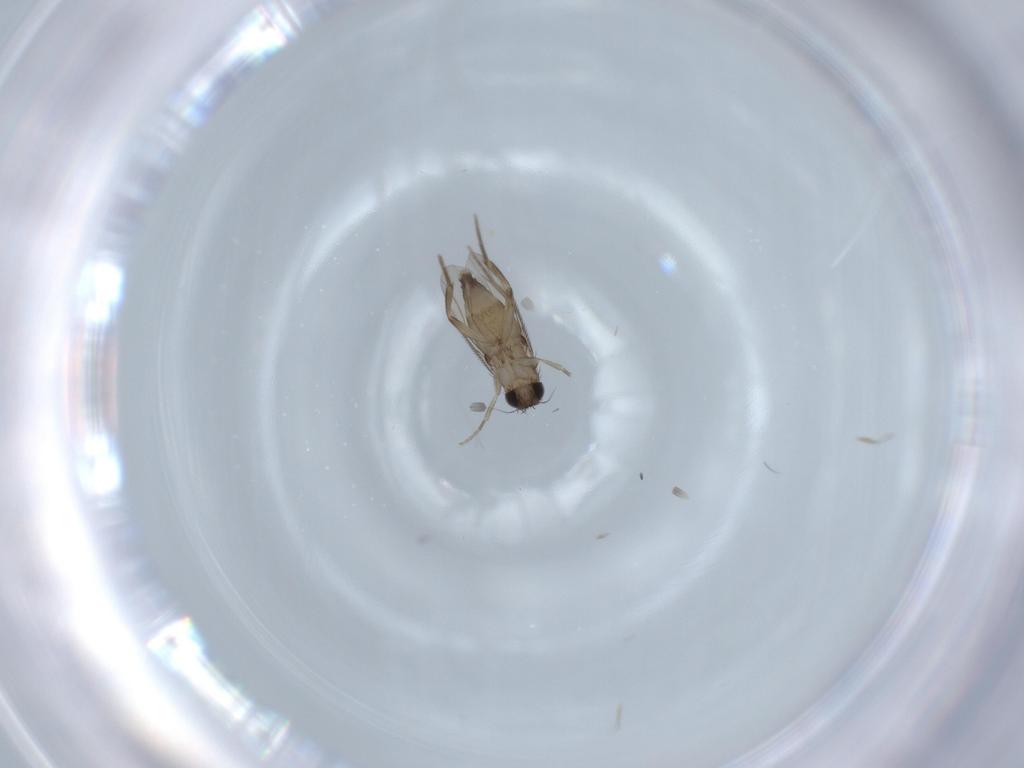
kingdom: Animalia
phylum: Arthropoda
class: Insecta
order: Diptera
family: Phoridae
